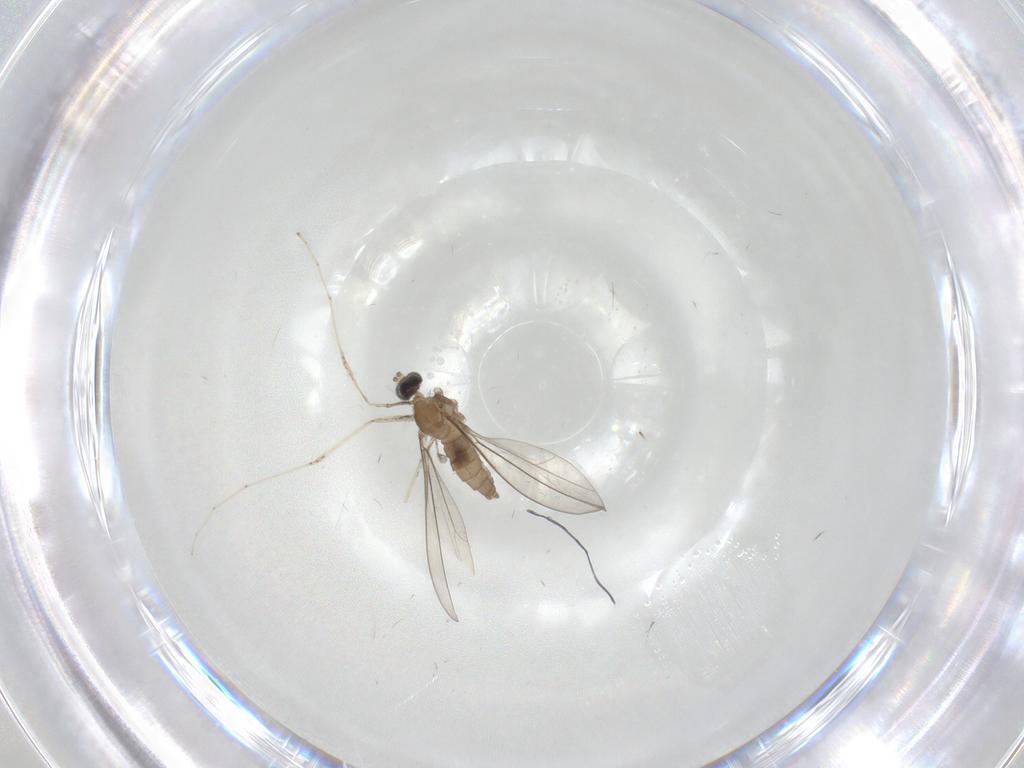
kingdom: Animalia
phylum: Arthropoda
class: Insecta
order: Diptera
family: Cecidomyiidae
